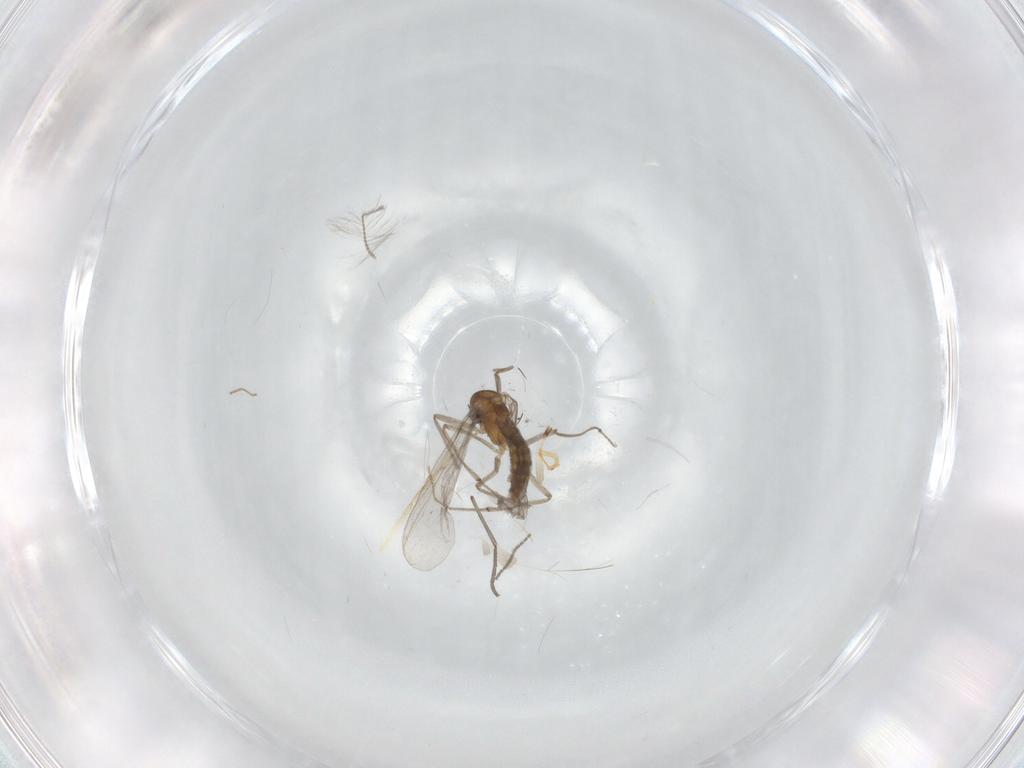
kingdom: Animalia
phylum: Arthropoda
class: Insecta
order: Diptera
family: Chironomidae
